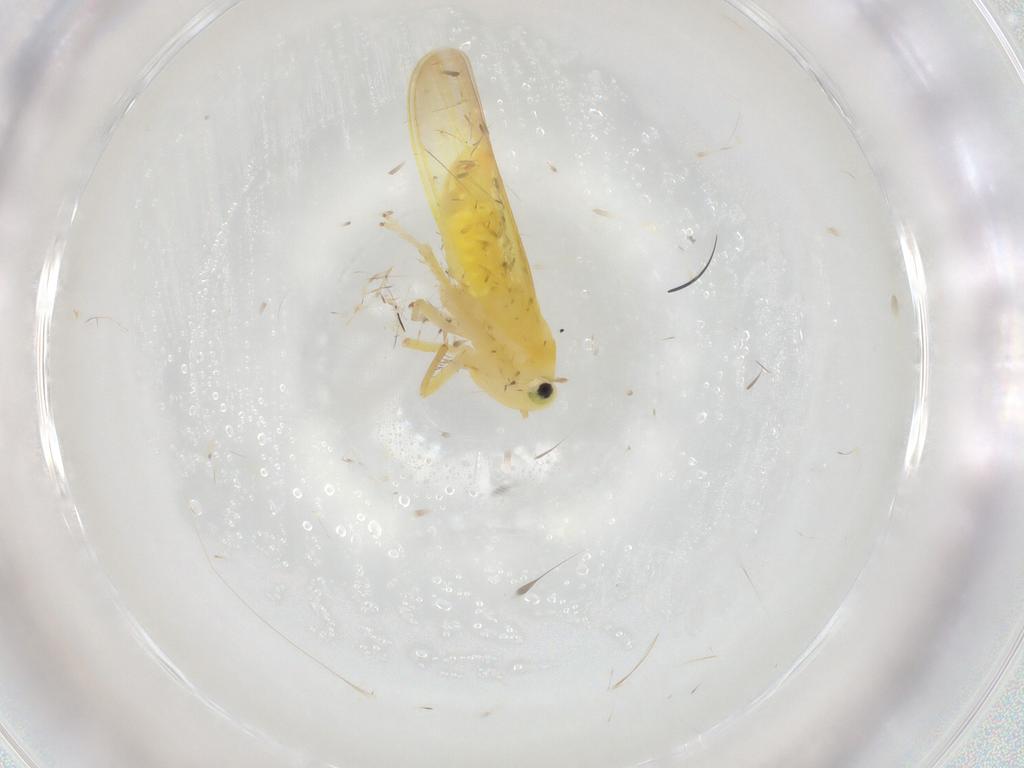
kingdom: Animalia
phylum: Arthropoda
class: Insecta
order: Hemiptera
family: Cicadellidae
